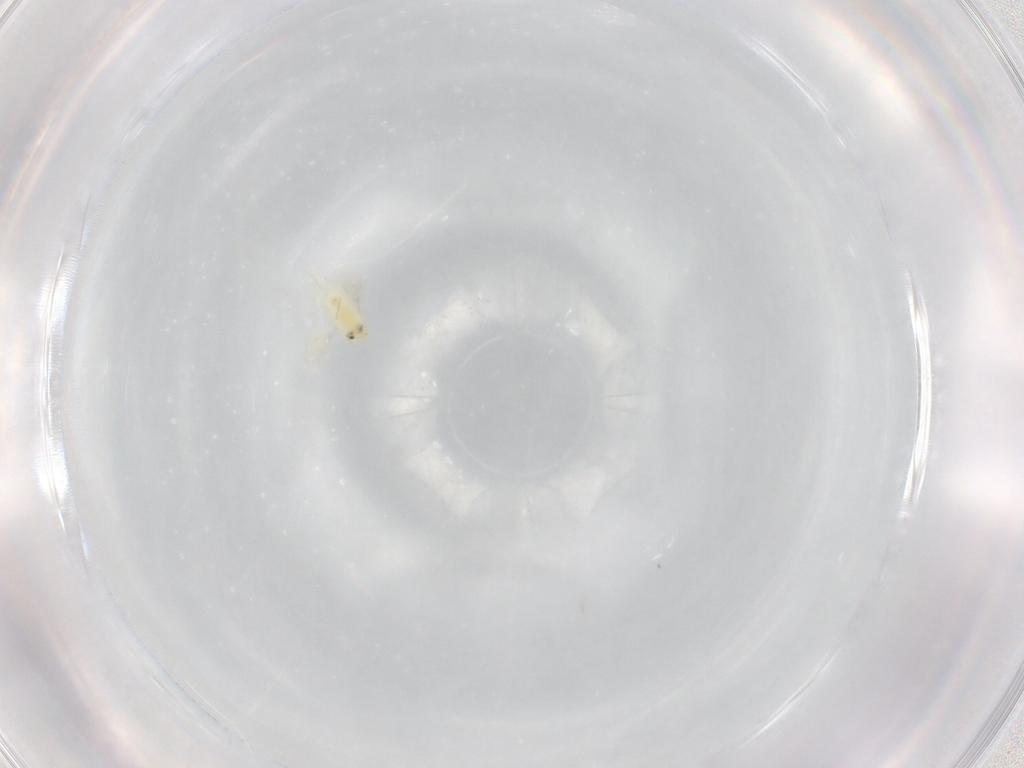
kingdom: Animalia
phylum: Arthropoda
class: Insecta
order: Hymenoptera
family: Aphelinidae
